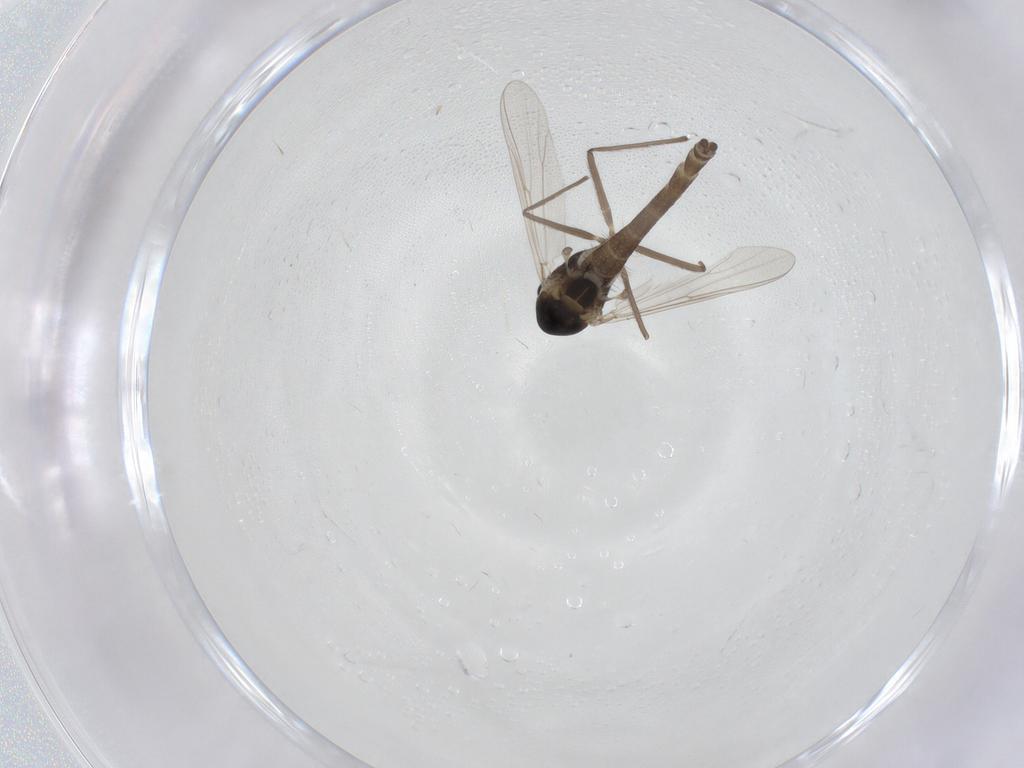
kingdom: Animalia
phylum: Arthropoda
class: Insecta
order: Diptera
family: Chironomidae
